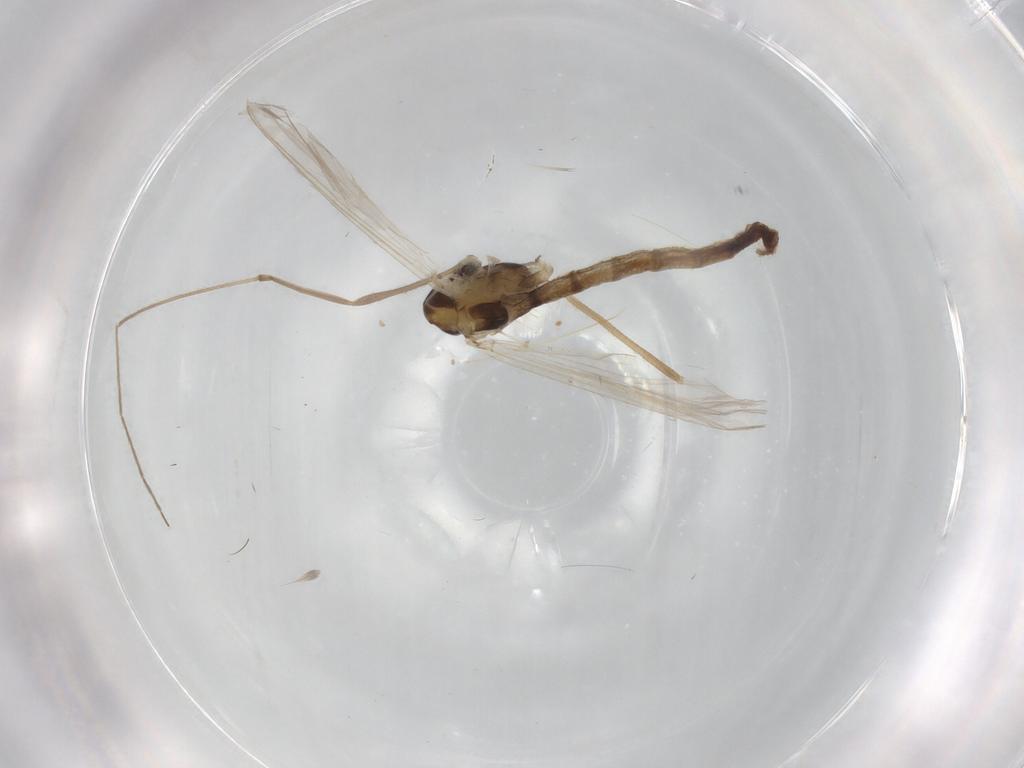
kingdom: Animalia
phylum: Arthropoda
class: Insecta
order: Diptera
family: Chironomidae
